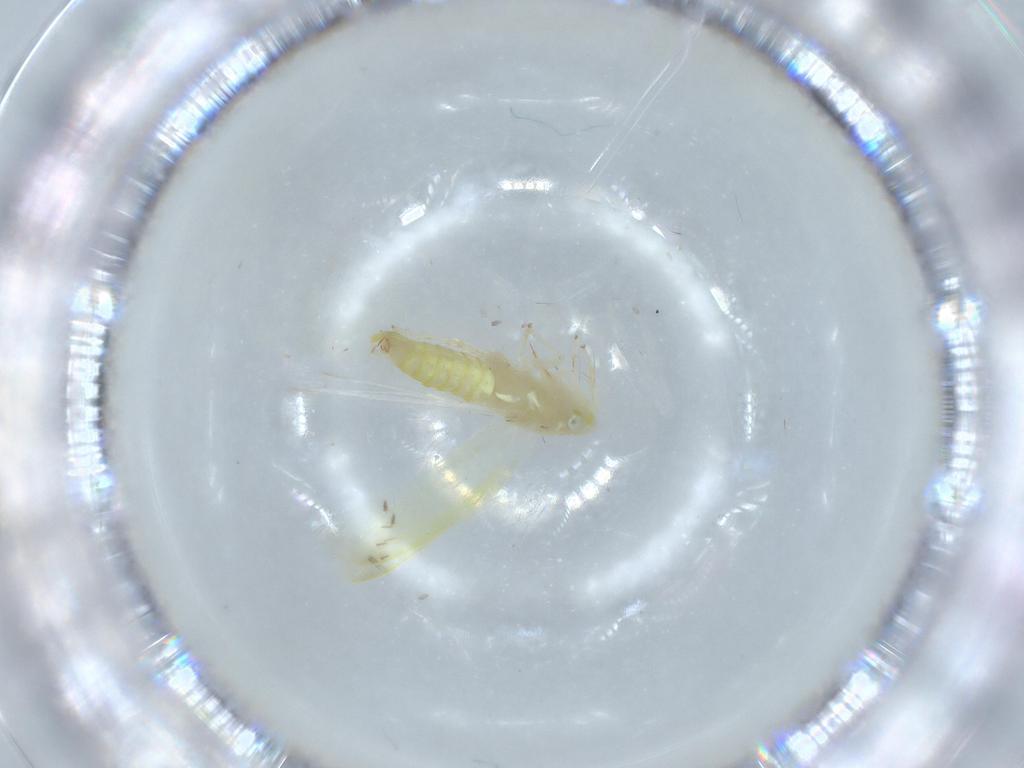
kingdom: Animalia
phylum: Arthropoda
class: Insecta
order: Hemiptera
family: Cicadellidae
